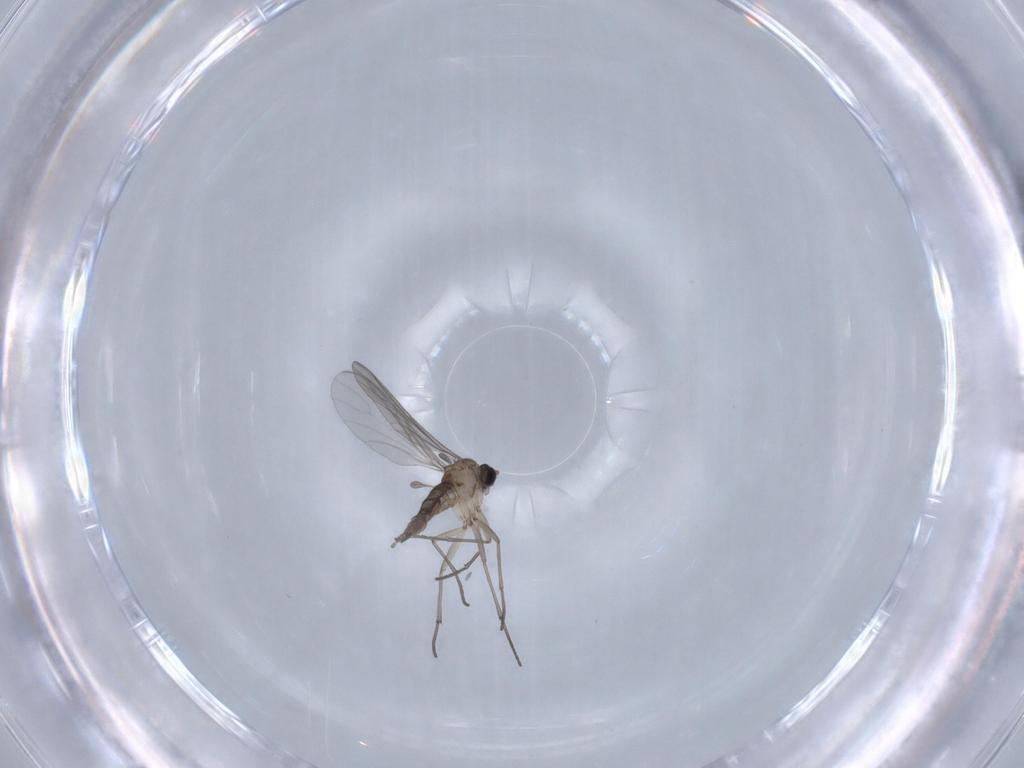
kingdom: Animalia
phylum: Arthropoda
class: Insecta
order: Diptera
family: Sciaridae
